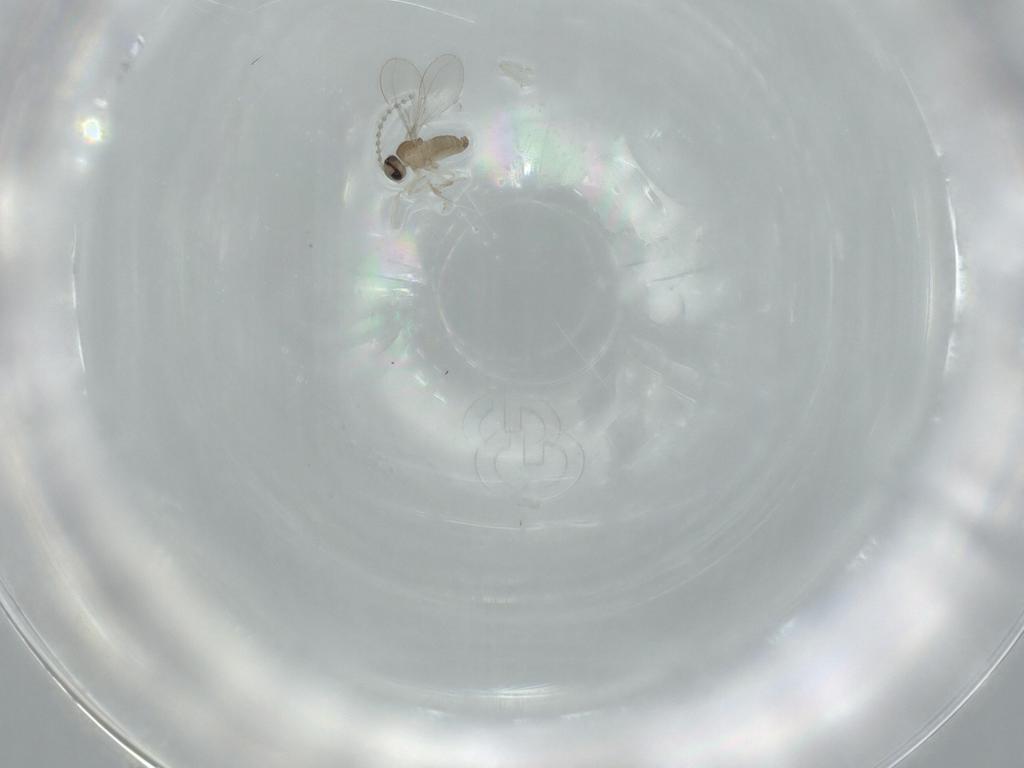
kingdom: Animalia
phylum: Arthropoda
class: Insecta
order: Diptera
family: Cecidomyiidae
